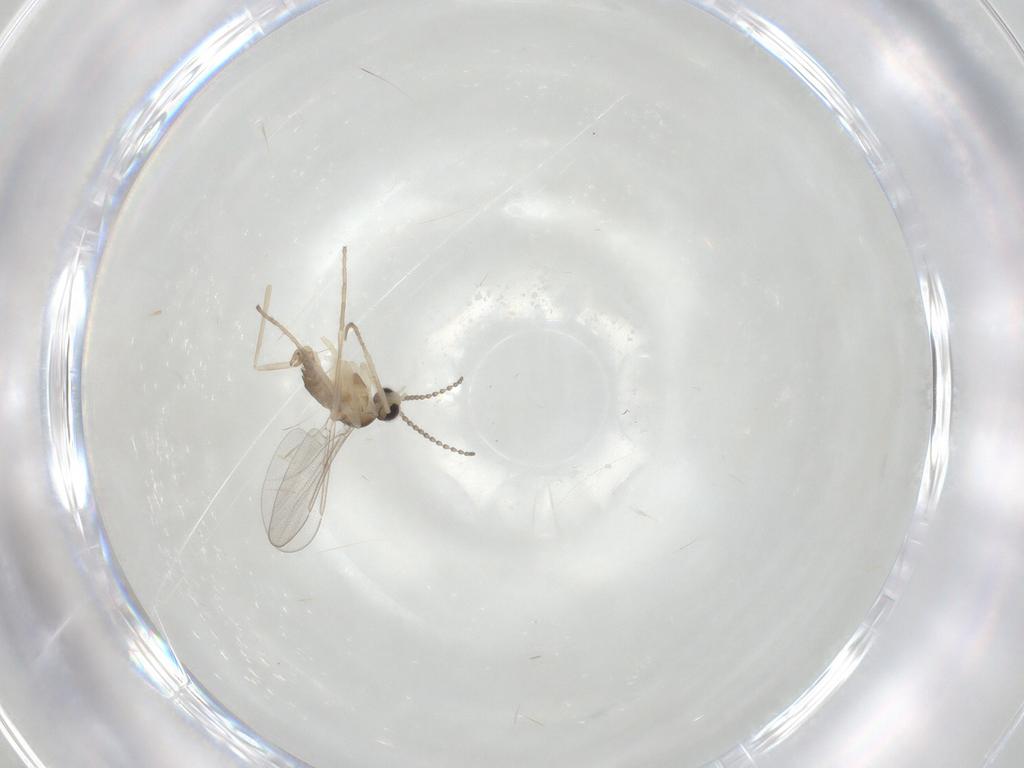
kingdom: Animalia
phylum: Arthropoda
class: Insecta
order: Diptera
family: Cecidomyiidae
